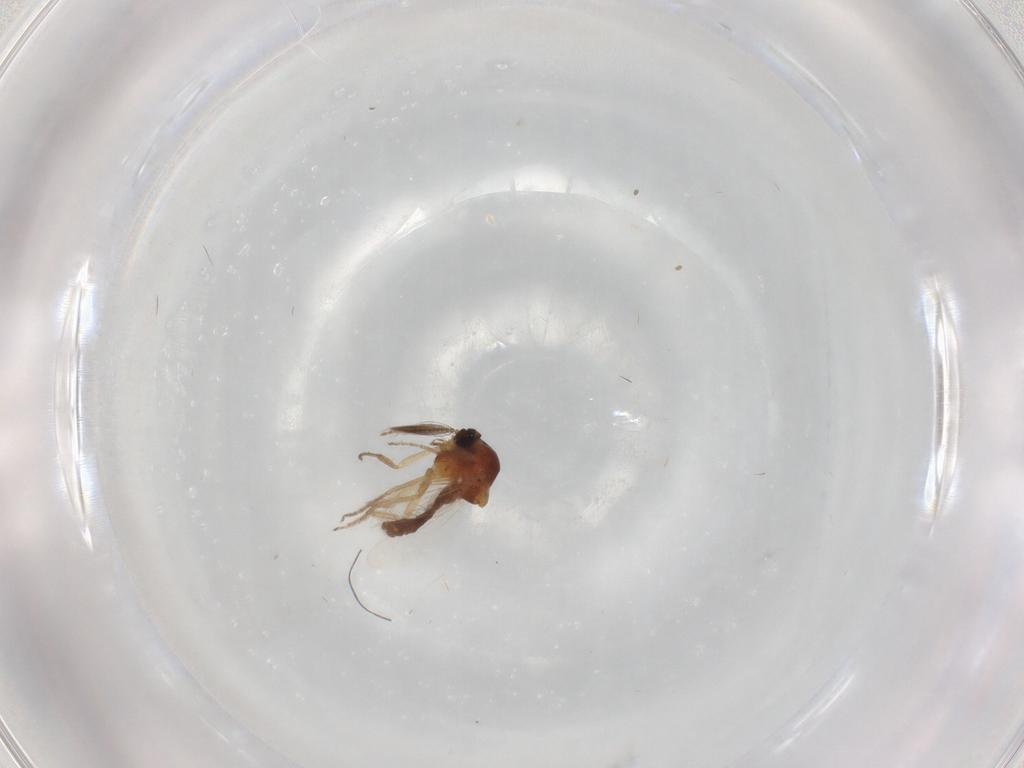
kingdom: Animalia
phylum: Arthropoda
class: Insecta
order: Diptera
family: Ceratopogonidae
